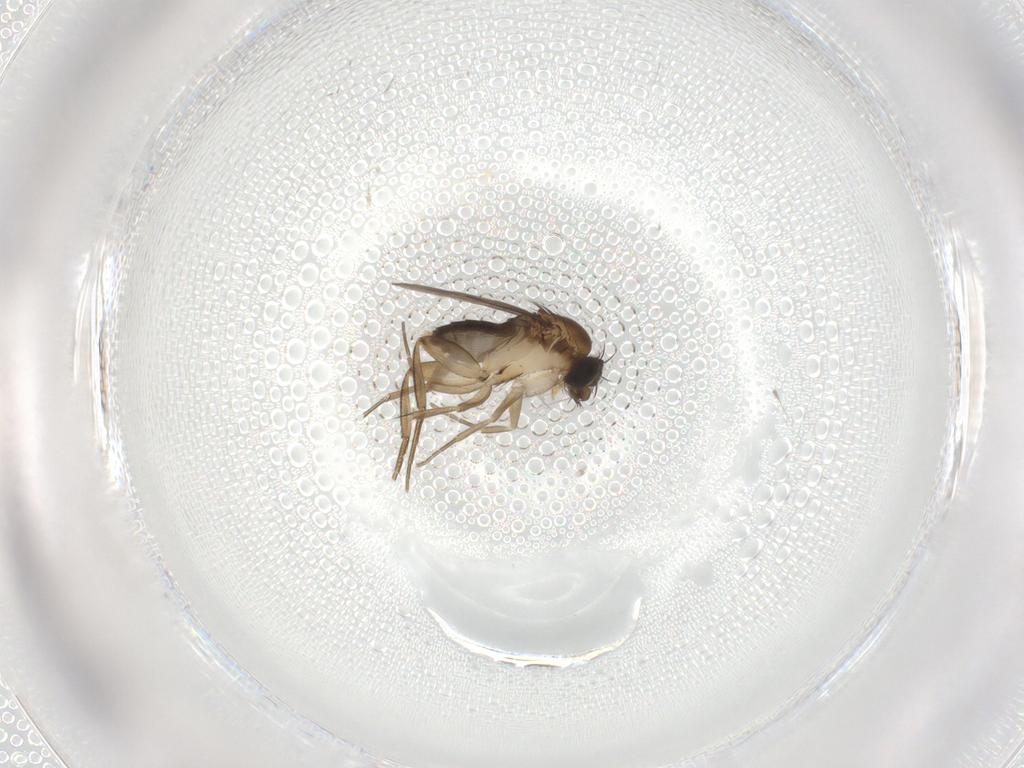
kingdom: Animalia
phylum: Arthropoda
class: Insecta
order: Diptera
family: Phoridae
